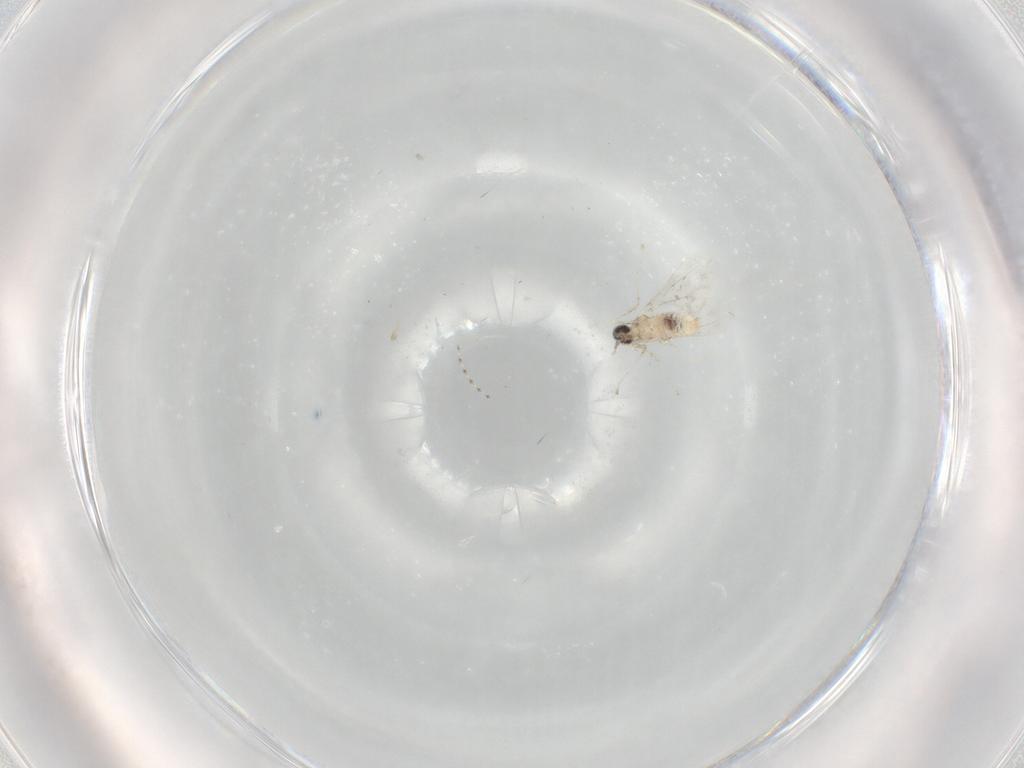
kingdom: Animalia
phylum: Arthropoda
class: Insecta
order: Diptera
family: Cecidomyiidae
